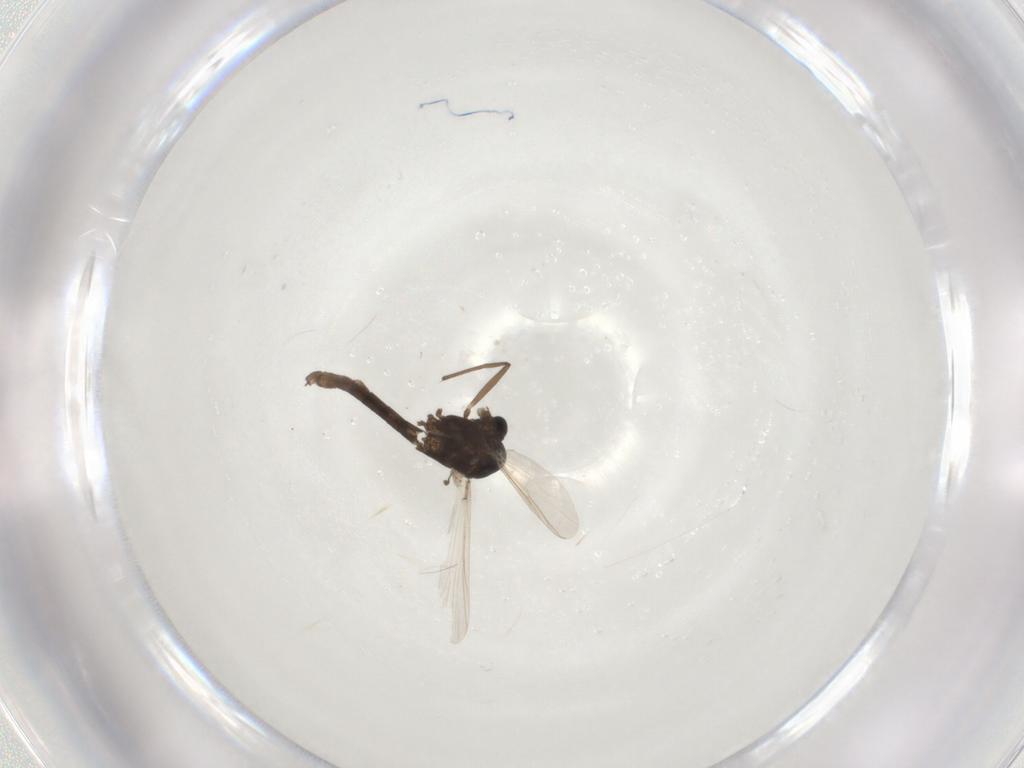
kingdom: Animalia
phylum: Arthropoda
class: Insecta
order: Diptera
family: Chironomidae
